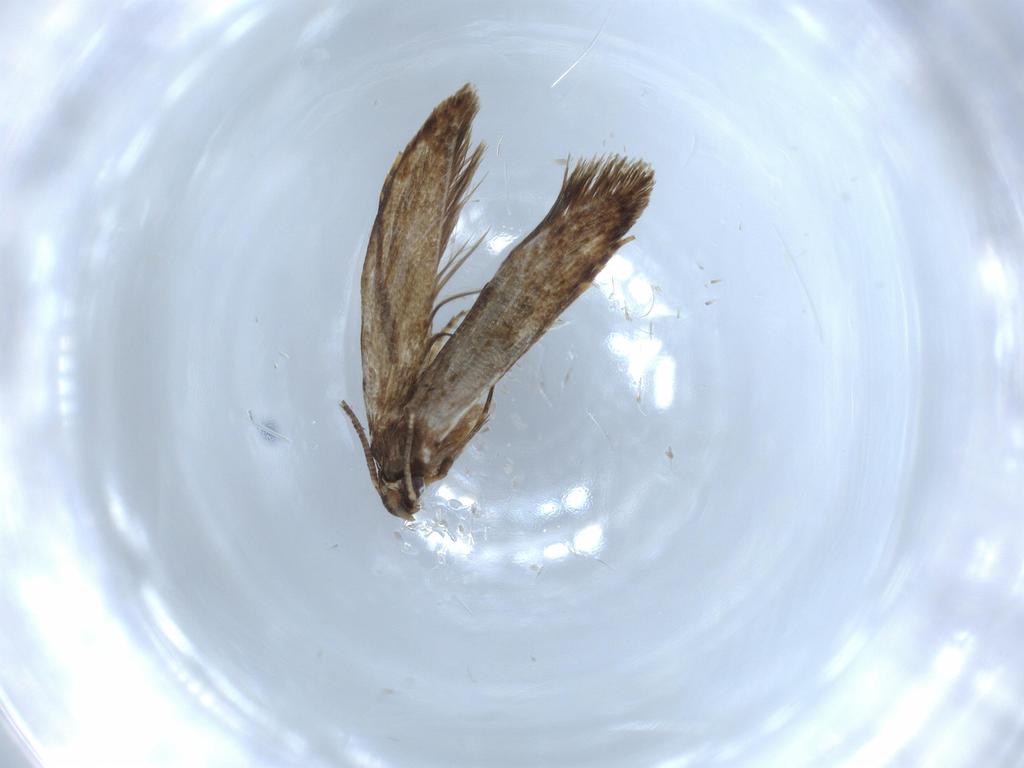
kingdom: Animalia
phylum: Arthropoda
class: Insecta
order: Lepidoptera
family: Tineidae
